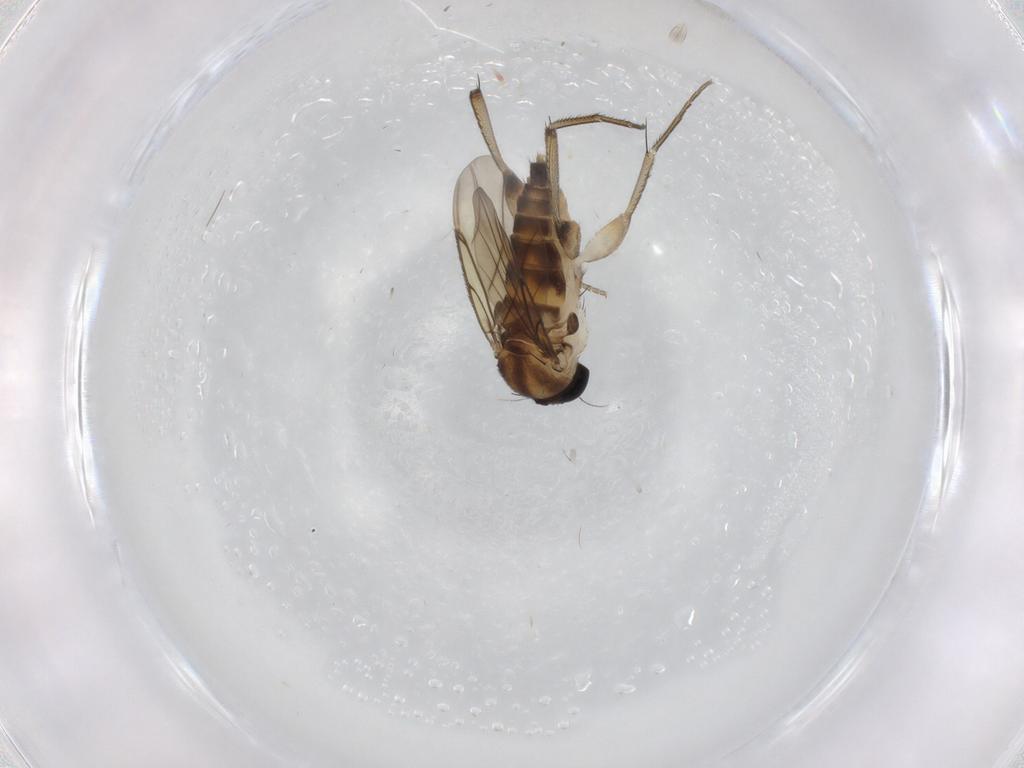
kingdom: Animalia
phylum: Arthropoda
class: Insecta
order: Diptera
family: Phoridae
